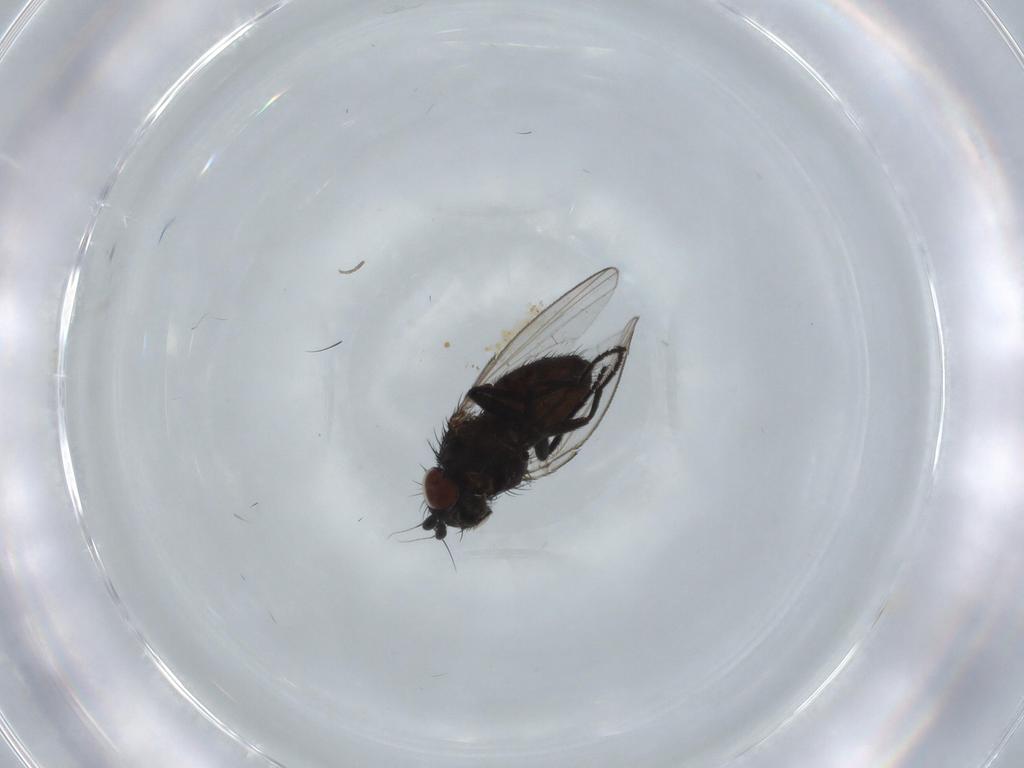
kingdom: Animalia
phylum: Arthropoda
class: Insecta
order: Diptera
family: Milichiidae
